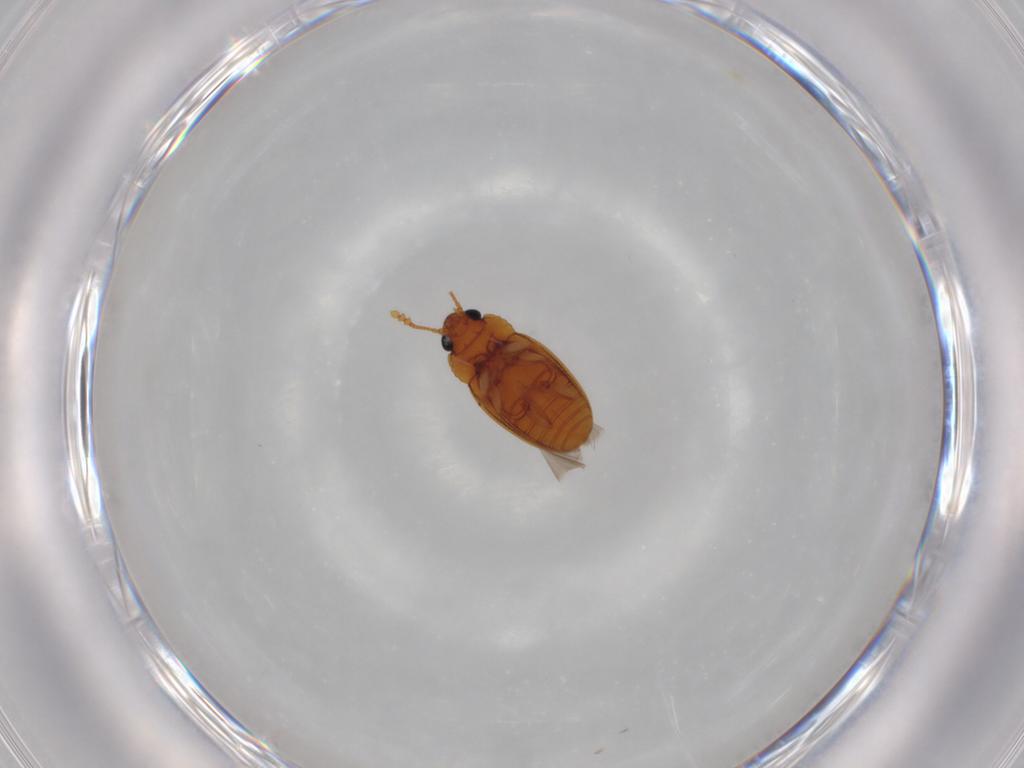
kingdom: Animalia
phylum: Arthropoda
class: Insecta
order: Coleoptera
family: Erotylidae
